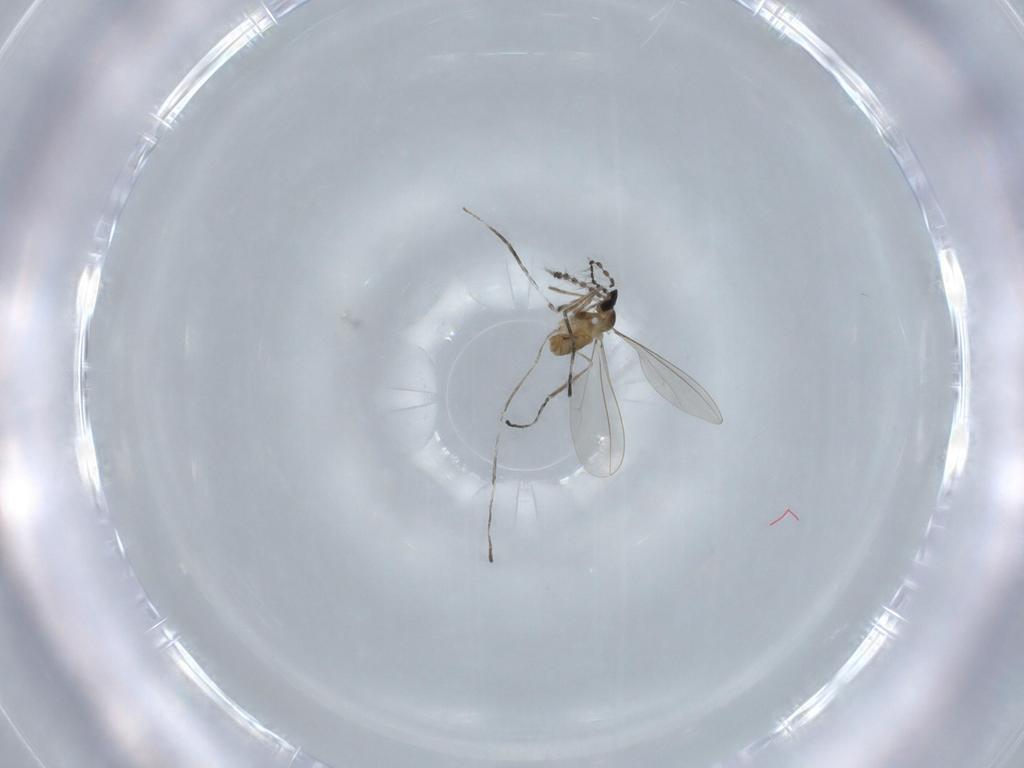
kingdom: Animalia
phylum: Arthropoda
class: Insecta
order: Diptera
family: Cecidomyiidae
